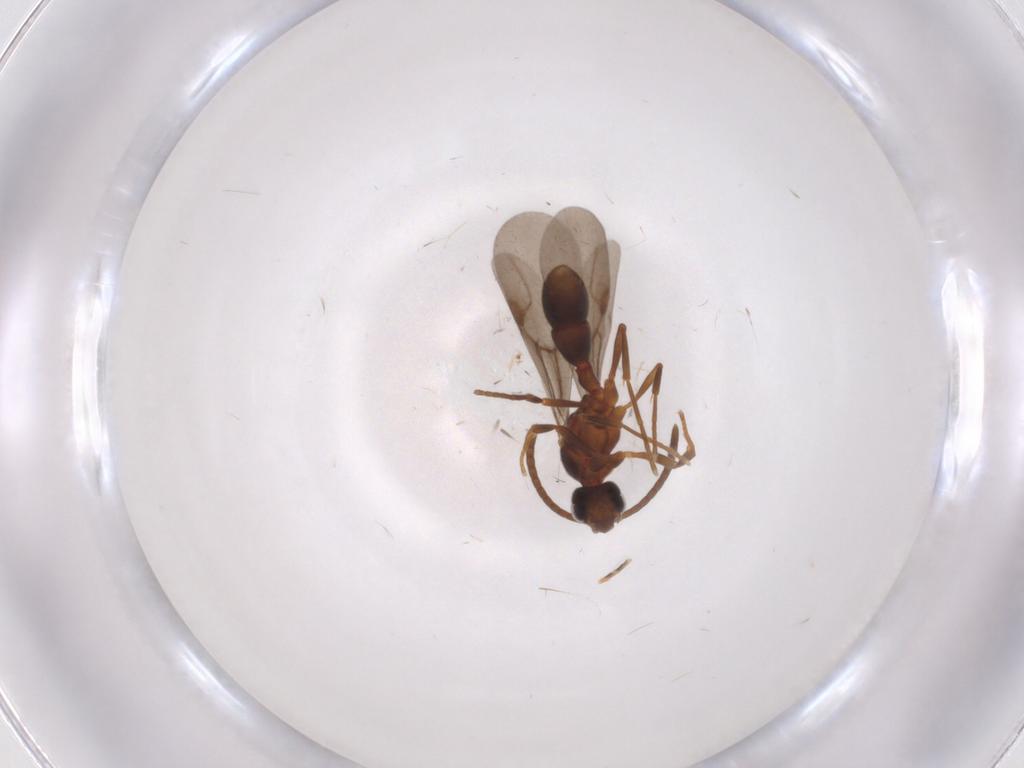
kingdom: Animalia
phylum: Arthropoda
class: Insecta
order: Hymenoptera
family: Formicidae
